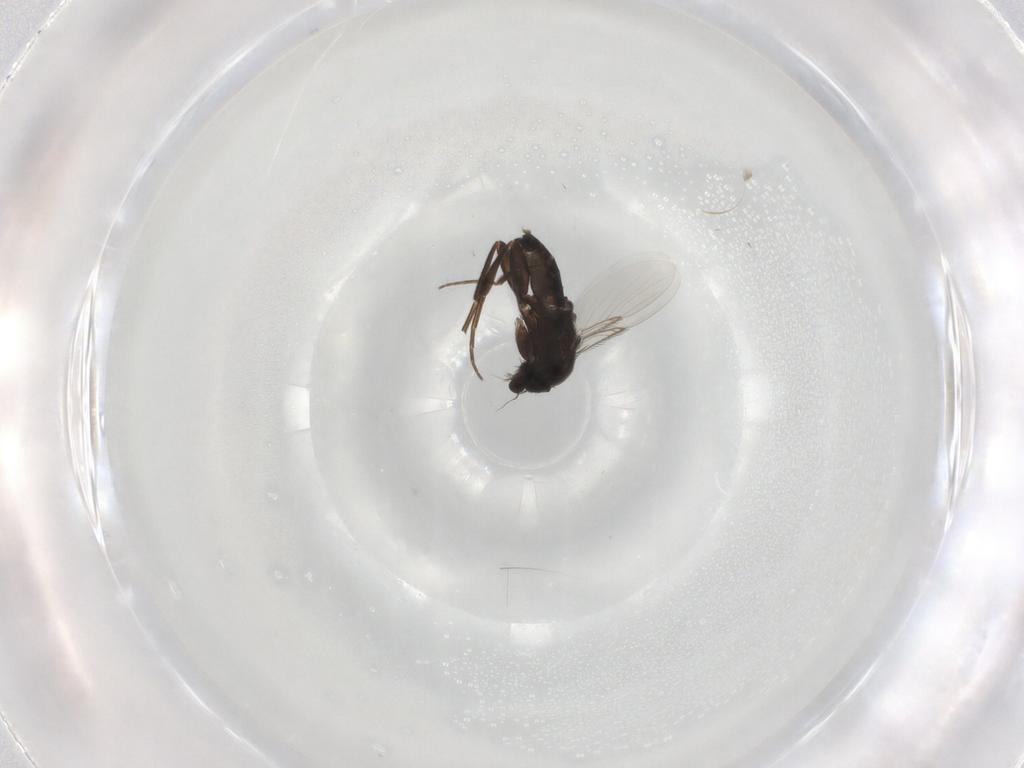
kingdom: Animalia
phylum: Arthropoda
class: Insecta
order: Diptera
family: Phoridae
